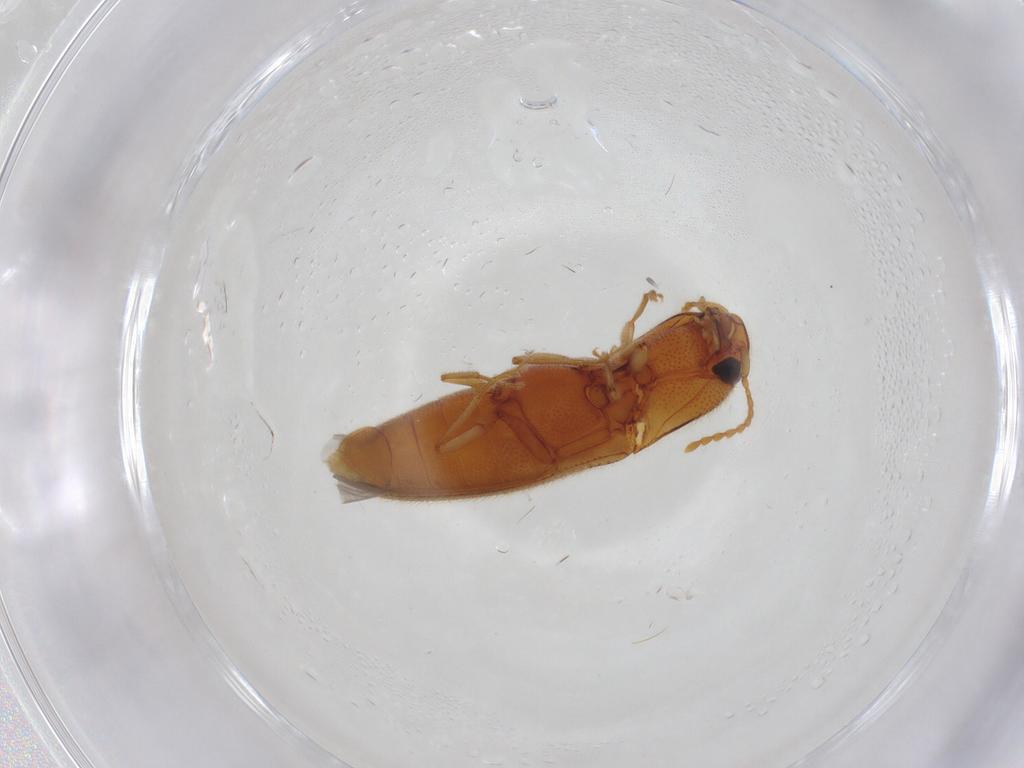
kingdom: Animalia
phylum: Arthropoda
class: Insecta
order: Coleoptera
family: Elateridae
